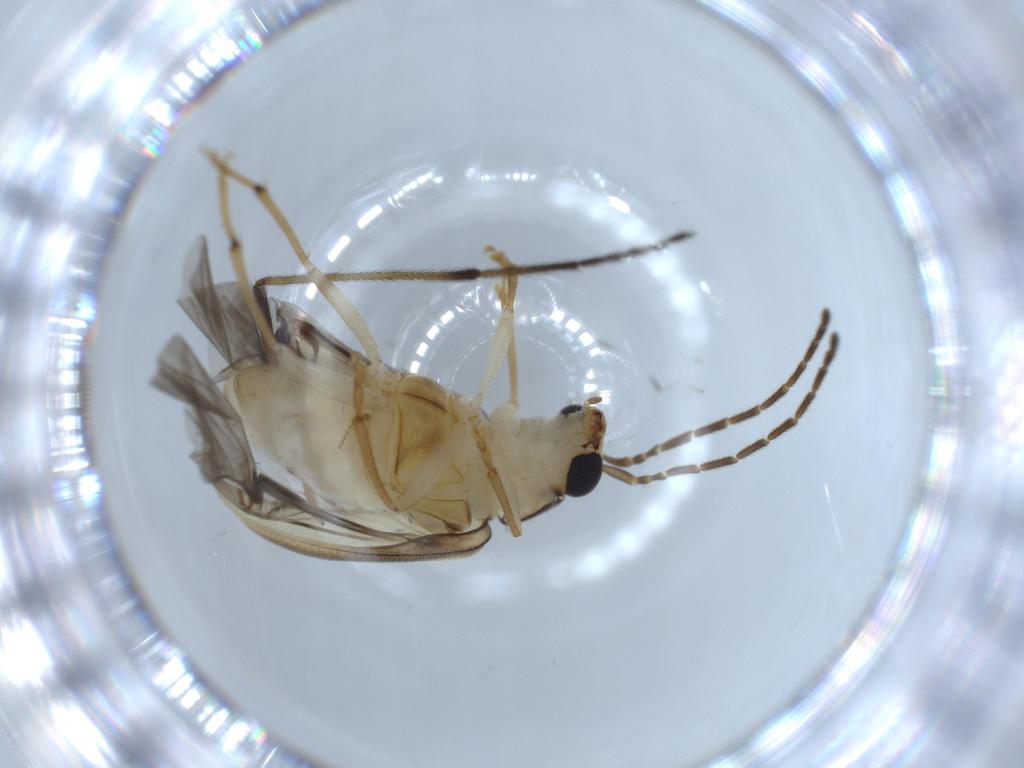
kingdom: Animalia
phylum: Arthropoda
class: Insecta
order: Coleoptera
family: Chrysomelidae
